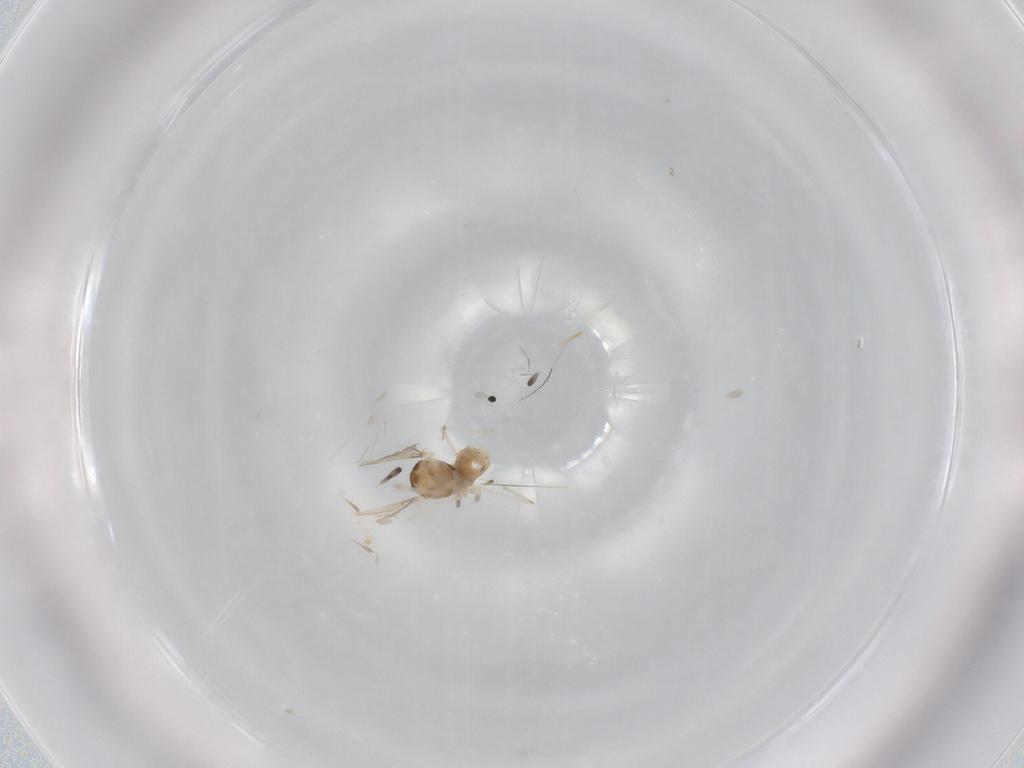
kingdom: Animalia
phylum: Arthropoda
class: Insecta
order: Diptera
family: Cecidomyiidae
